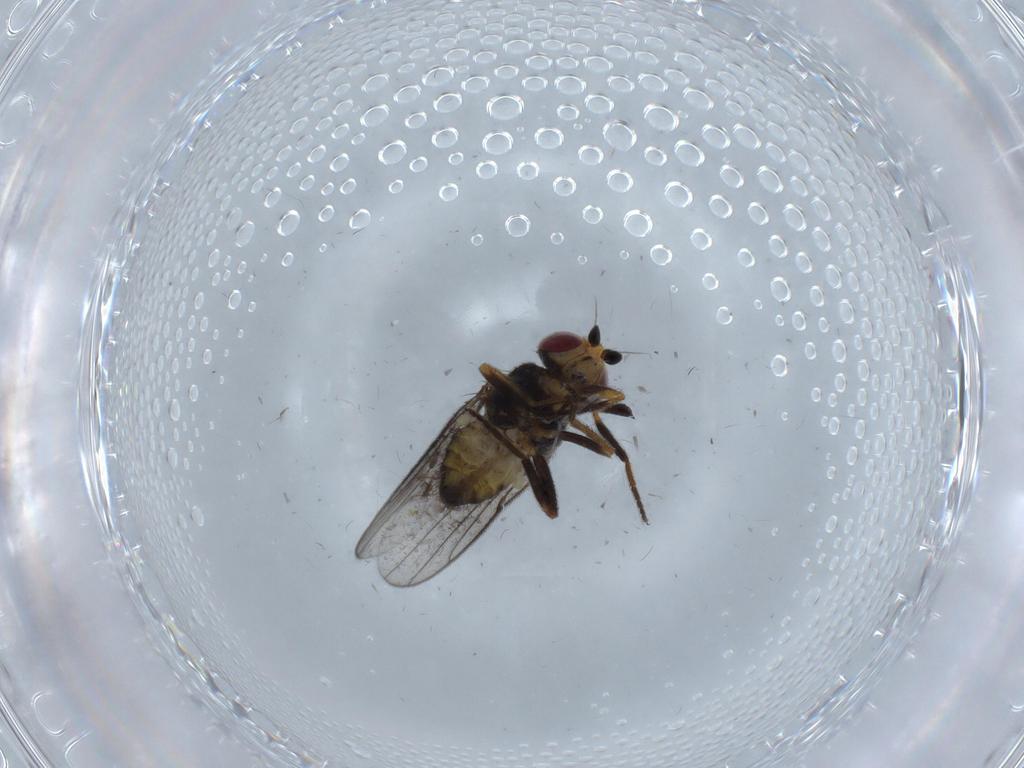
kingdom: Animalia
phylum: Arthropoda
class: Insecta
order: Diptera
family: Chloropidae
